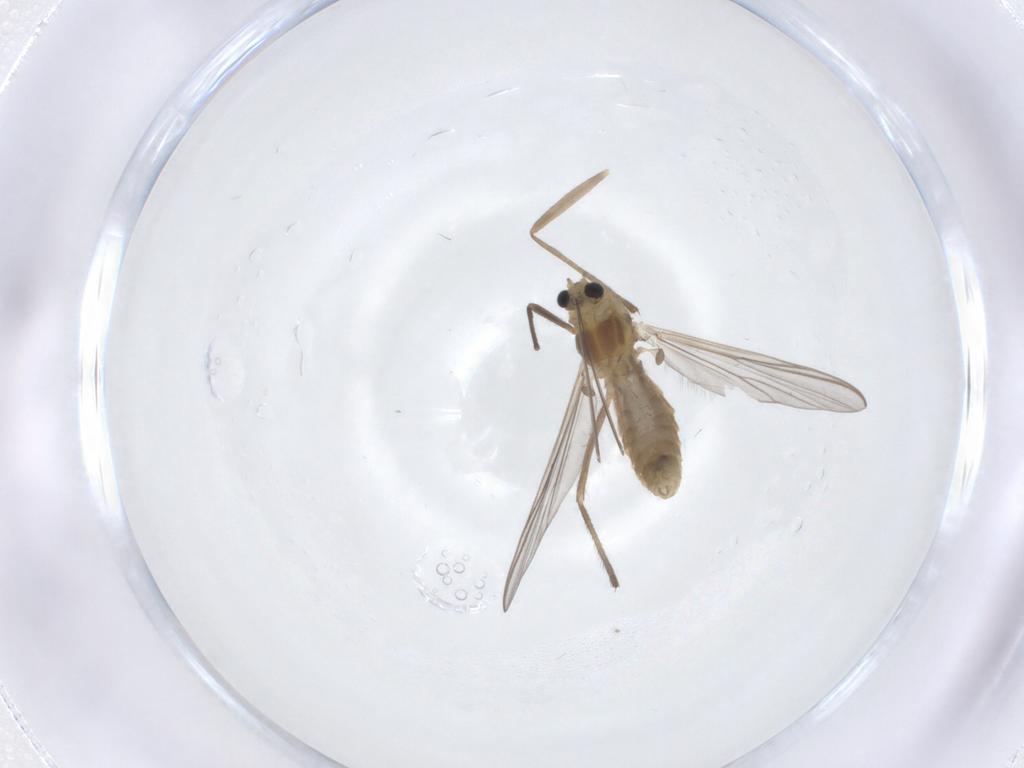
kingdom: Animalia
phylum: Arthropoda
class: Insecta
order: Diptera
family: Chironomidae
